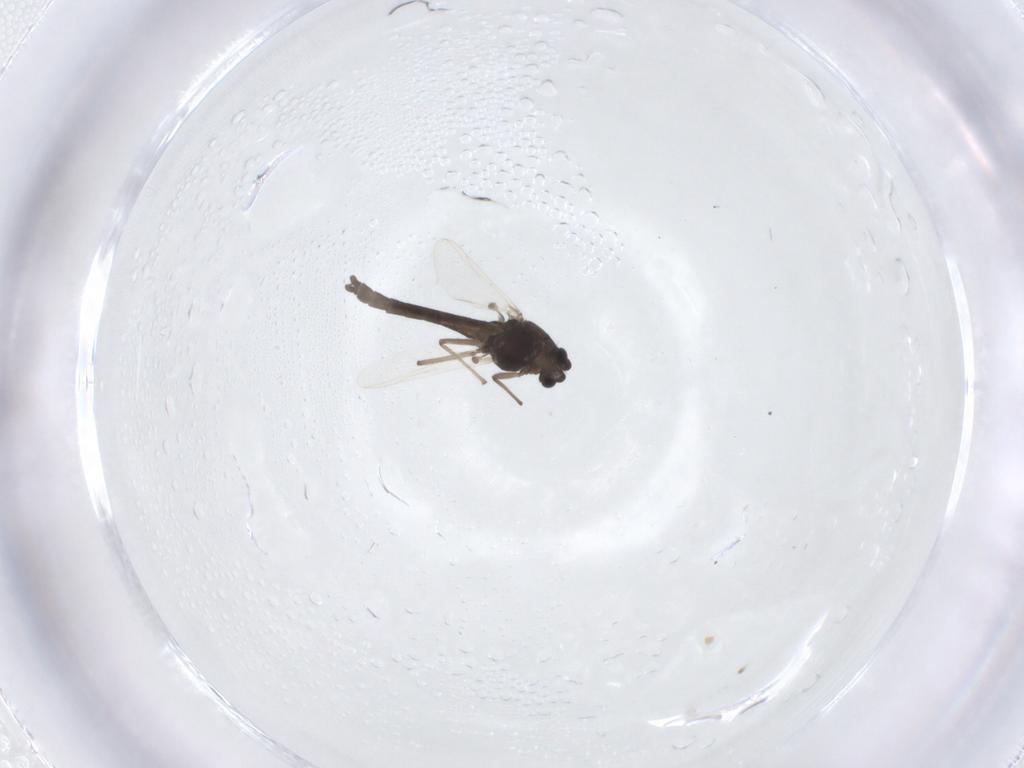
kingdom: Animalia
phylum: Arthropoda
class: Insecta
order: Diptera
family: Chironomidae
